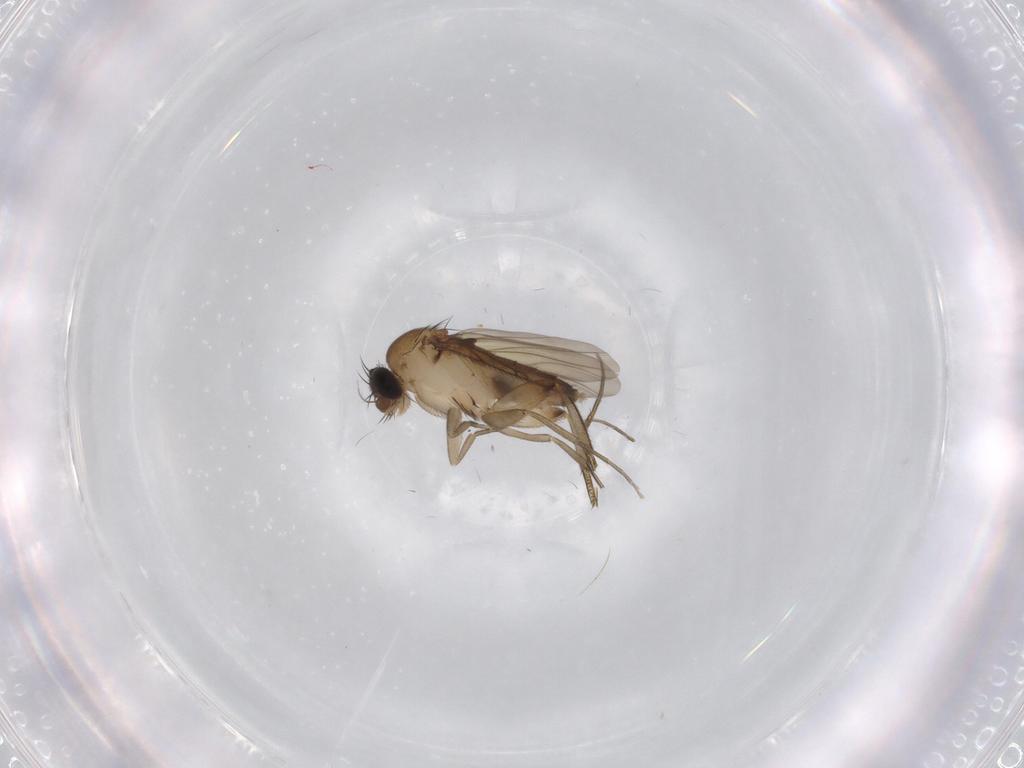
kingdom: Animalia
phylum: Arthropoda
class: Insecta
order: Diptera
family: Phoridae
